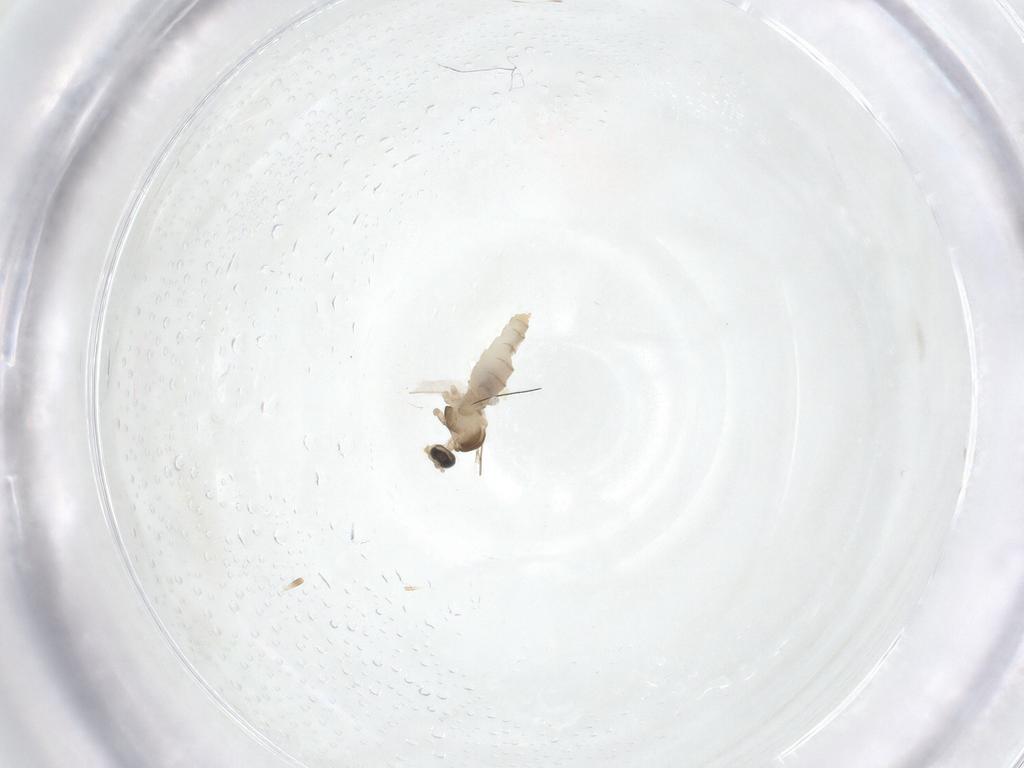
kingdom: Animalia
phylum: Arthropoda
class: Insecta
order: Diptera
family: Cecidomyiidae
